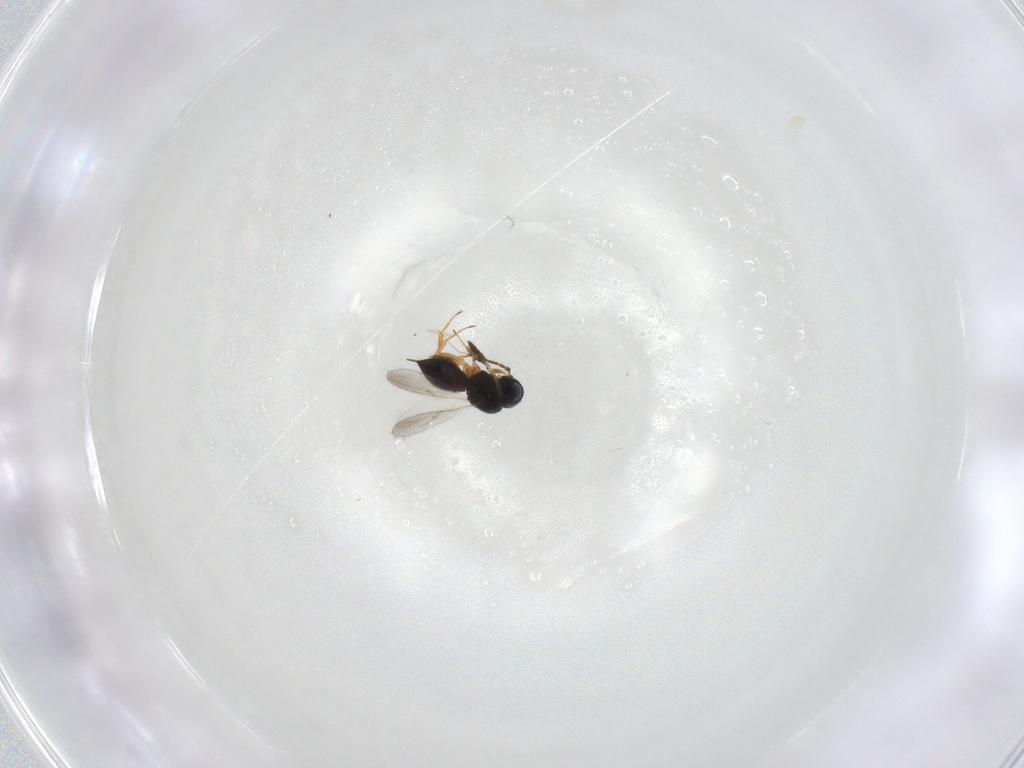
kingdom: Animalia
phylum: Arthropoda
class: Insecta
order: Hymenoptera
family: Scelionidae
